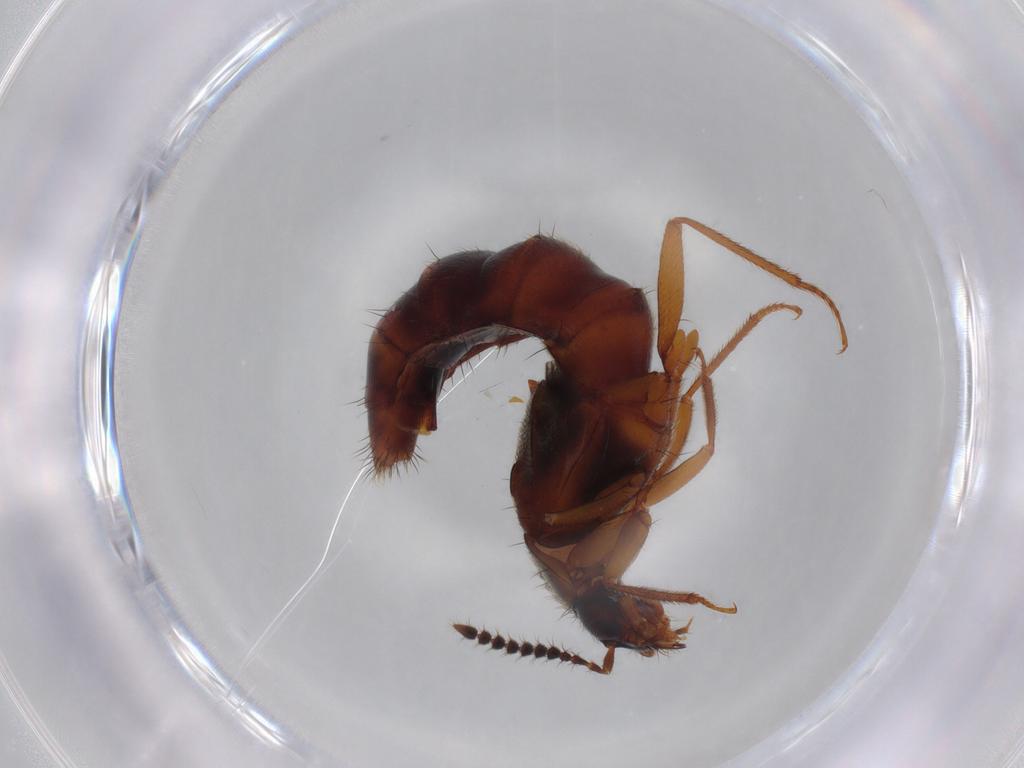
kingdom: Animalia
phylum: Arthropoda
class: Insecta
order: Coleoptera
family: Staphylinidae
